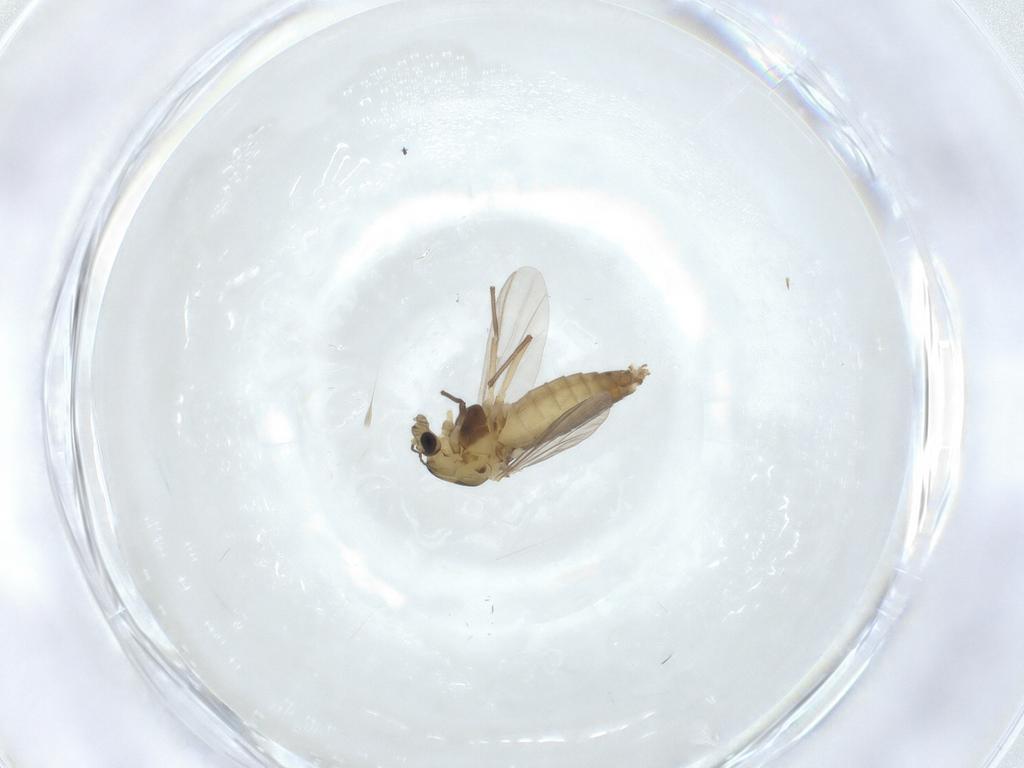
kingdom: Animalia
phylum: Arthropoda
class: Insecta
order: Diptera
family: Chironomidae
